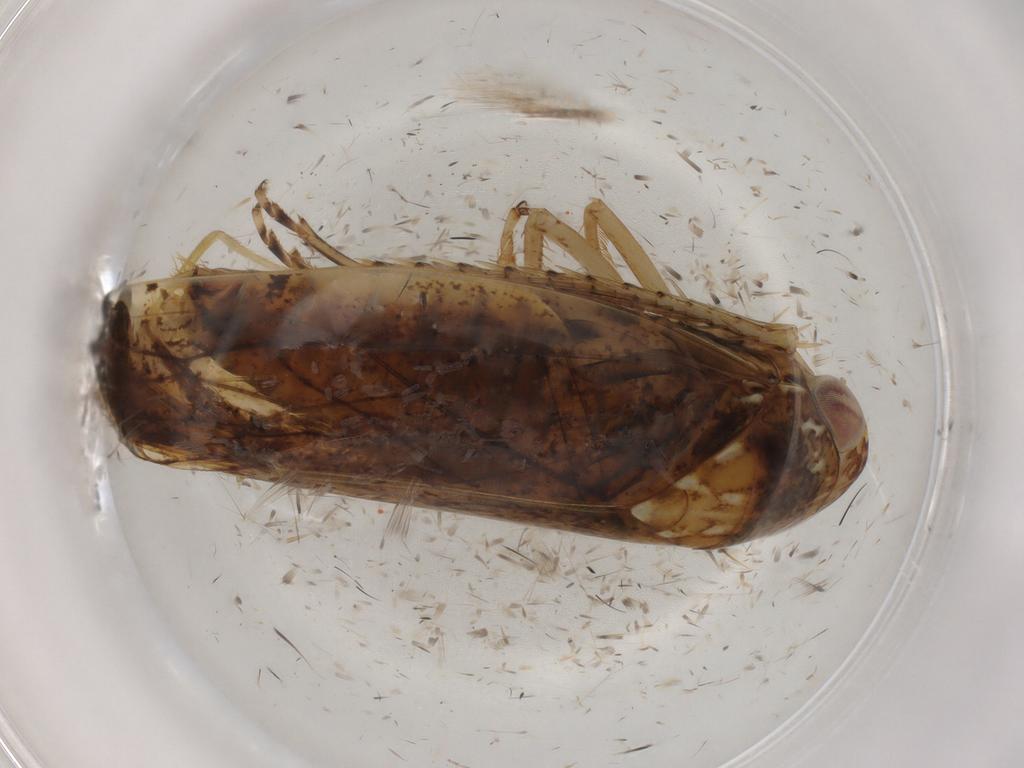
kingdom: Animalia
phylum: Arthropoda
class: Insecta
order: Hemiptera
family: Cicadellidae
